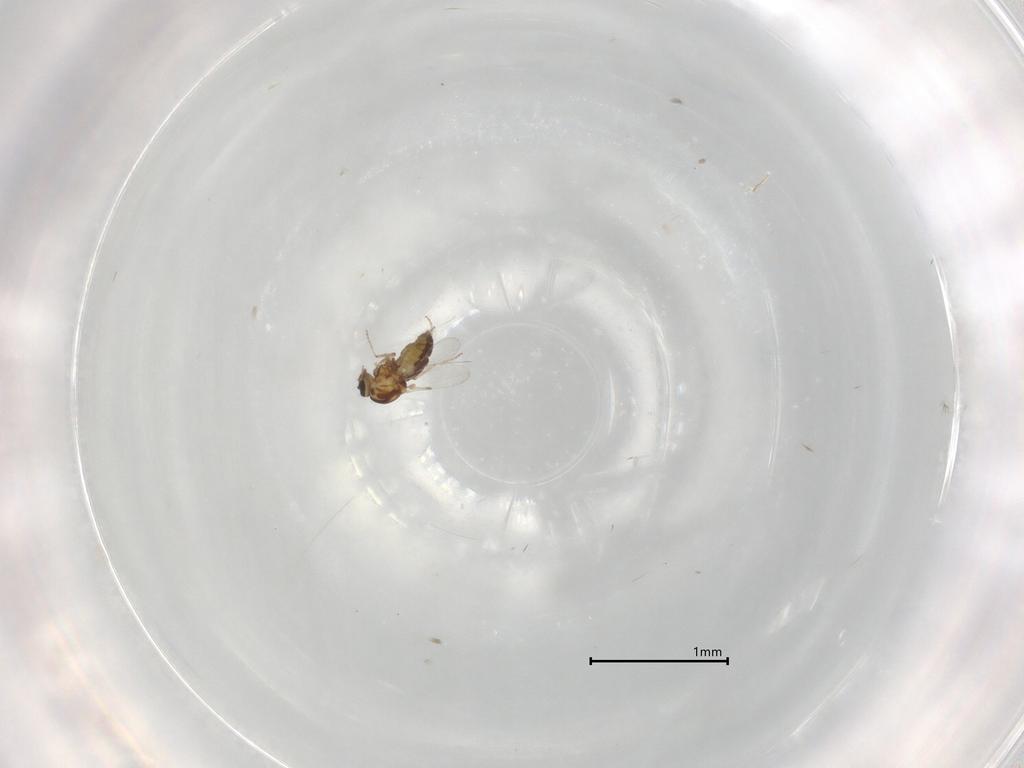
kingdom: Animalia
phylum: Arthropoda
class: Insecta
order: Diptera
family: Ceratopogonidae
